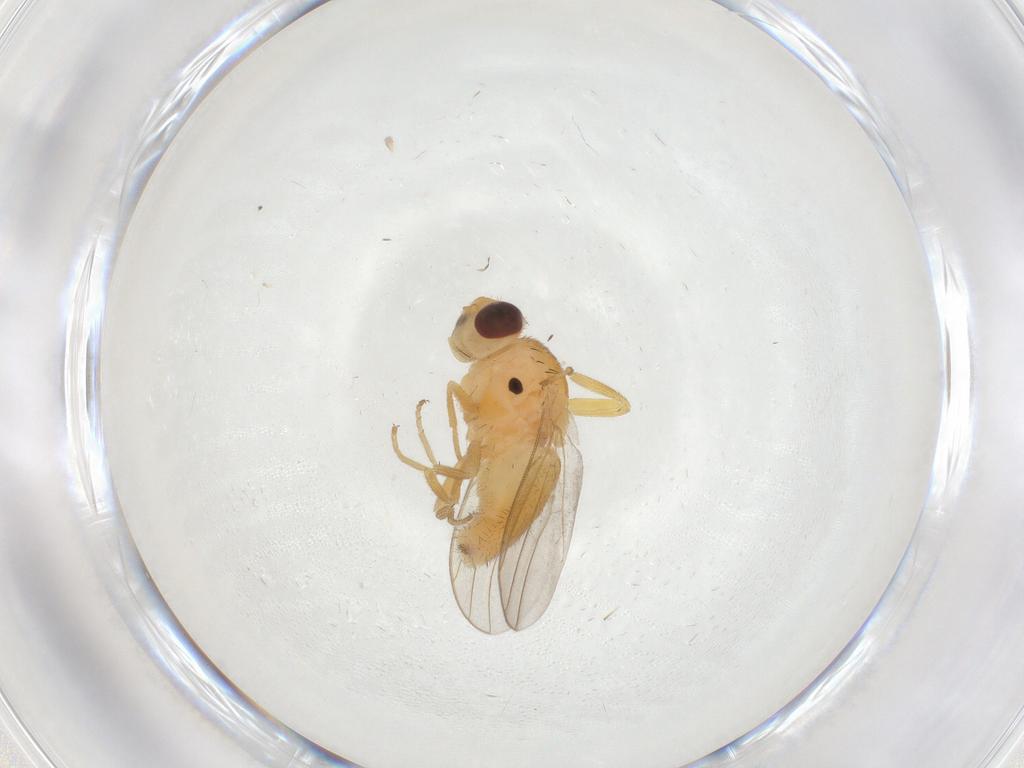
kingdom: Animalia
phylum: Arthropoda
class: Insecta
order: Diptera
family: Chloropidae
